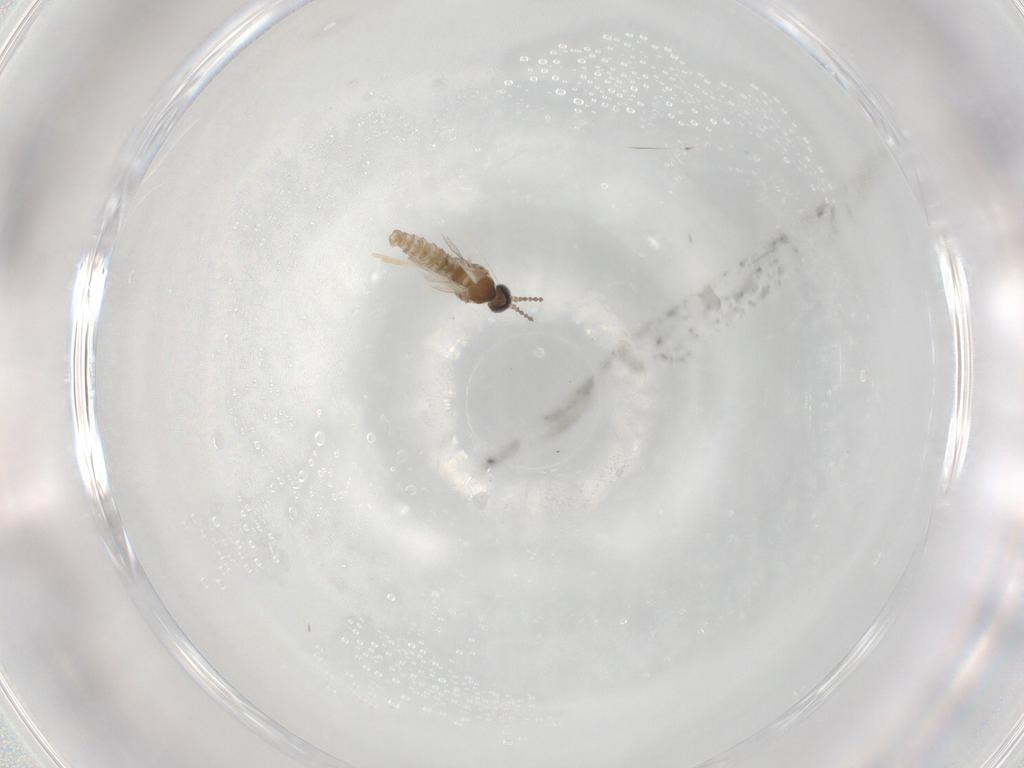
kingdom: Animalia
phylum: Arthropoda
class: Insecta
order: Diptera
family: Cecidomyiidae
